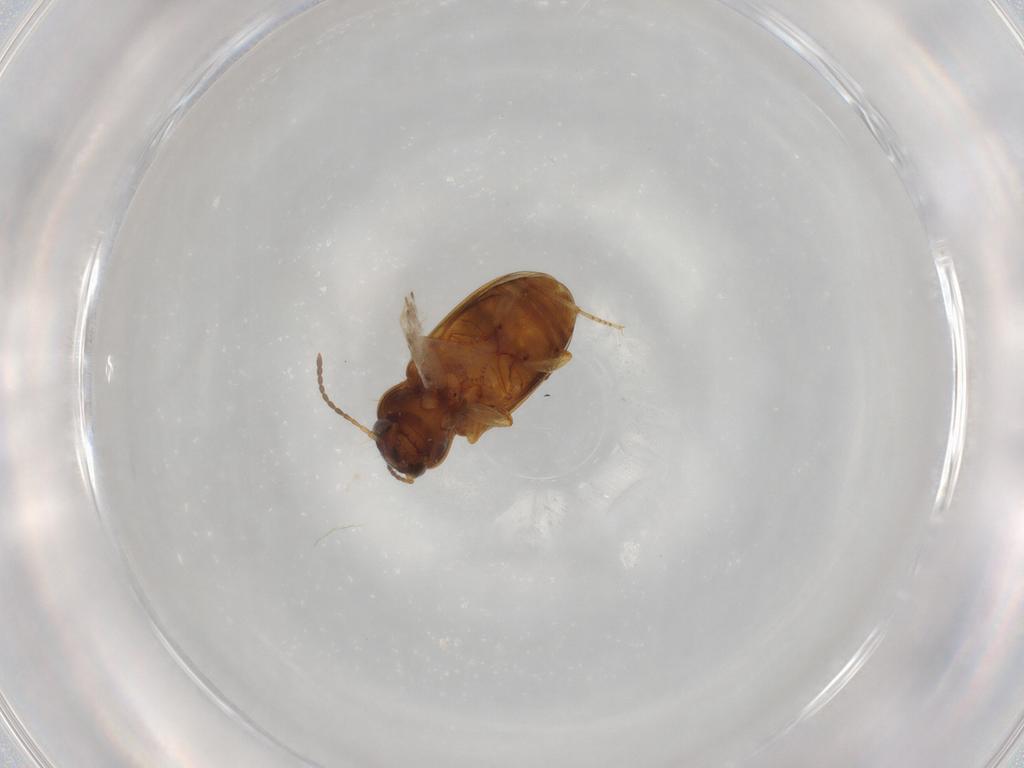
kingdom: Animalia
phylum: Arthropoda
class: Insecta
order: Coleoptera
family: Carabidae
